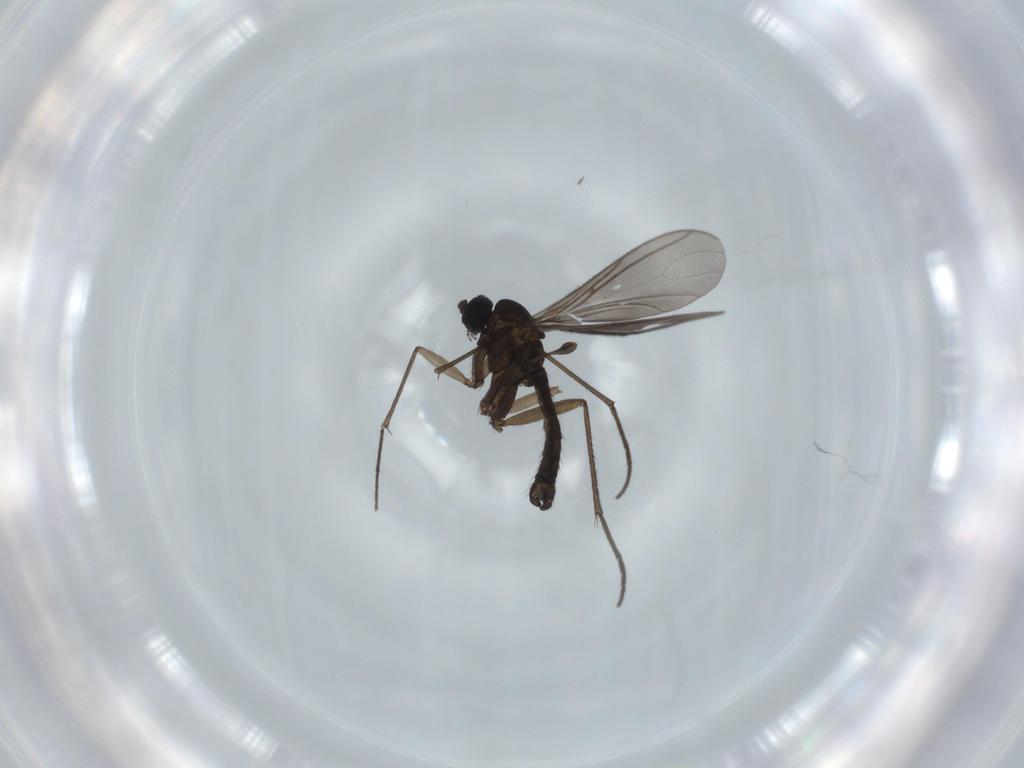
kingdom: Animalia
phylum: Arthropoda
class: Insecta
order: Diptera
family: Sciaridae
